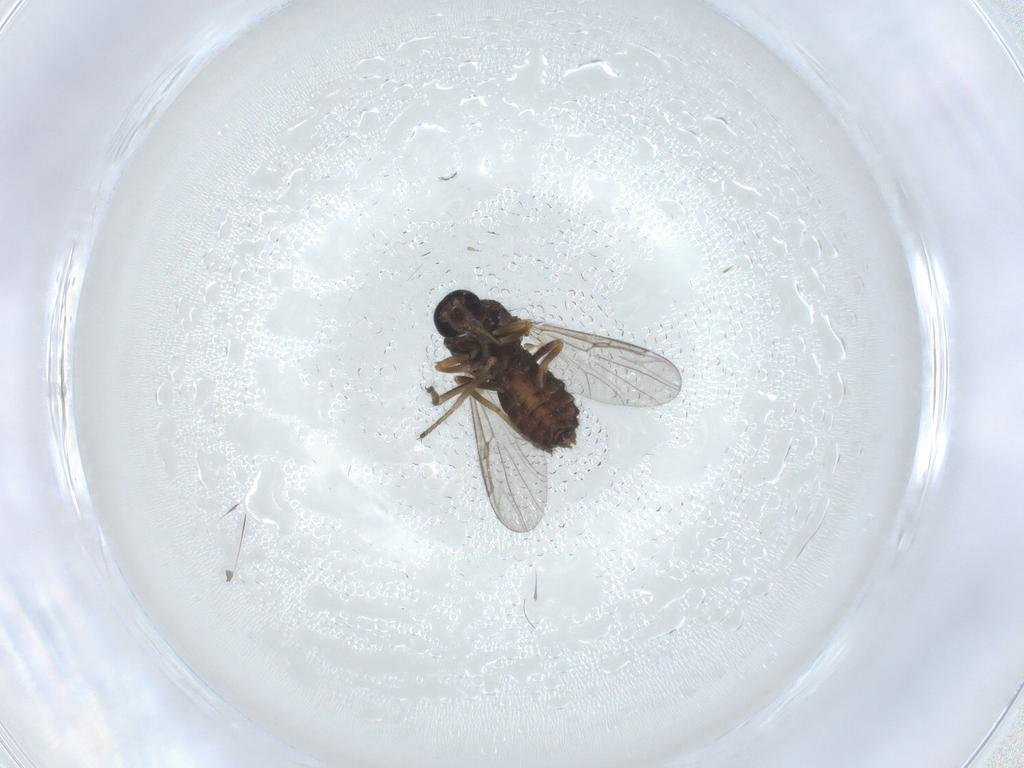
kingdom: Animalia
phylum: Arthropoda
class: Insecta
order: Diptera
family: Ceratopogonidae
